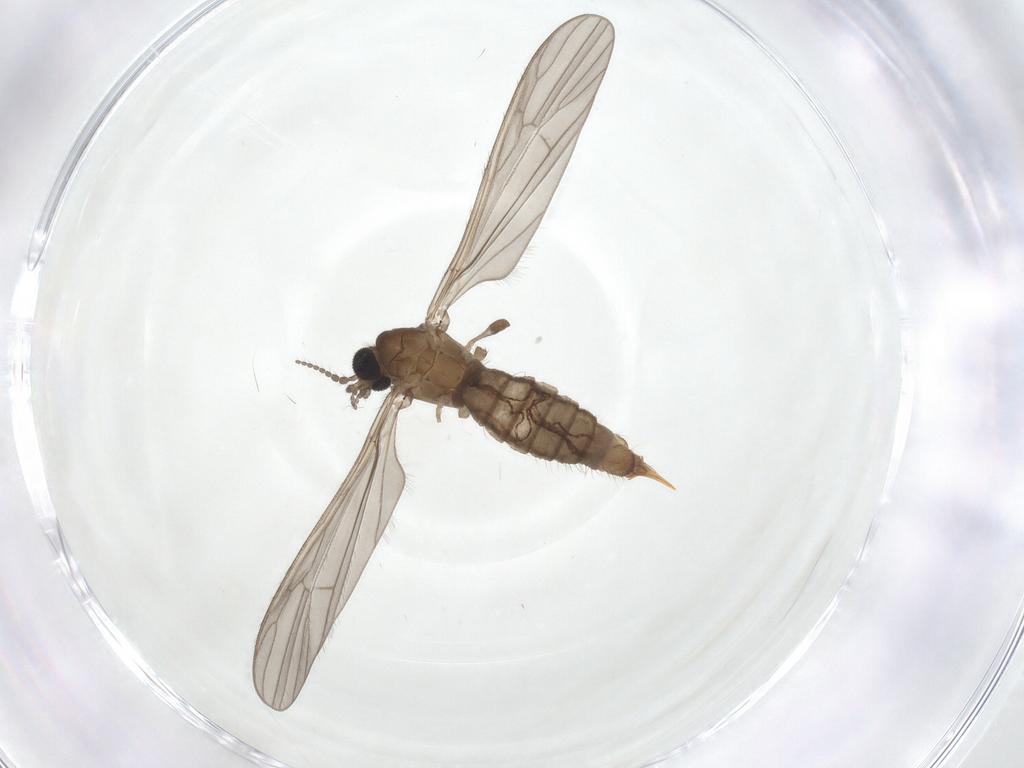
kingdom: Animalia
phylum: Arthropoda
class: Insecta
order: Diptera
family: Limoniidae
